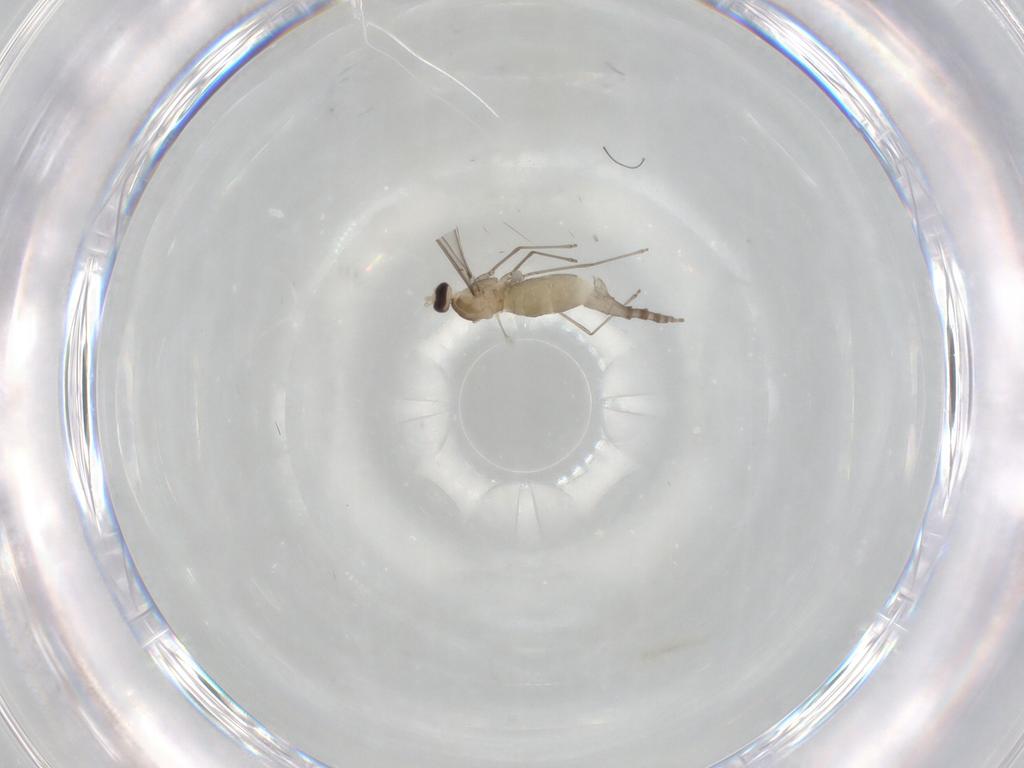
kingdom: Animalia
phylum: Arthropoda
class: Insecta
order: Diptera
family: Cecidomyiidae
